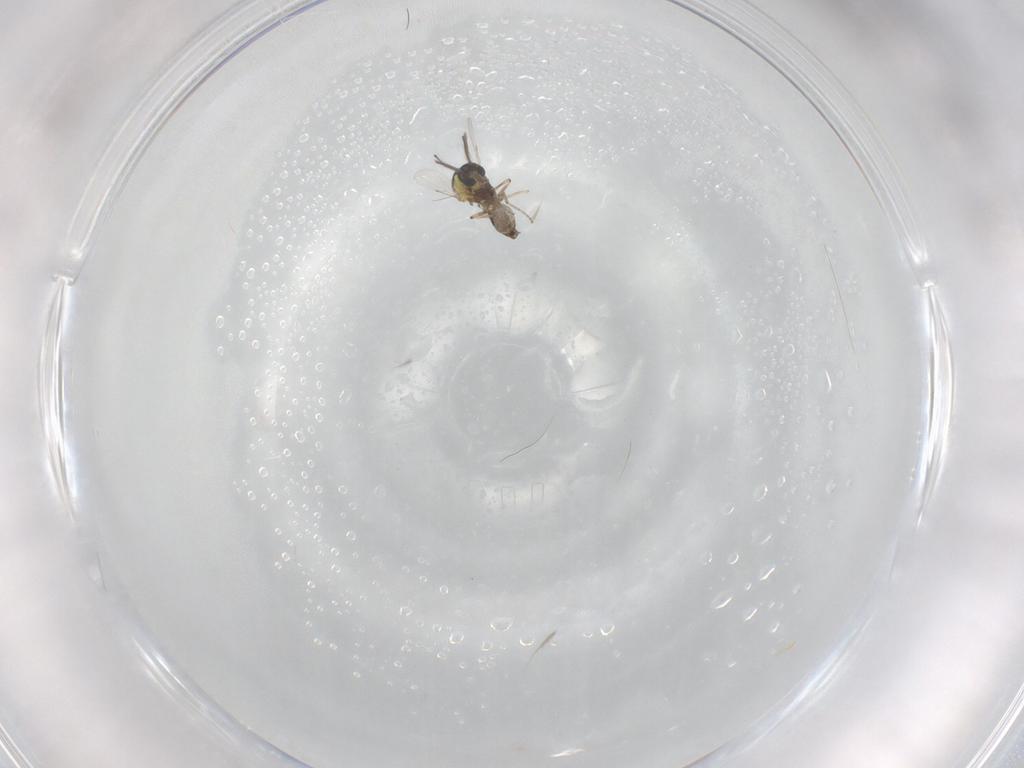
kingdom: Animalia
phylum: Arthropoda
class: Insecta
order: Diptera
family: Ceratopogonidae
